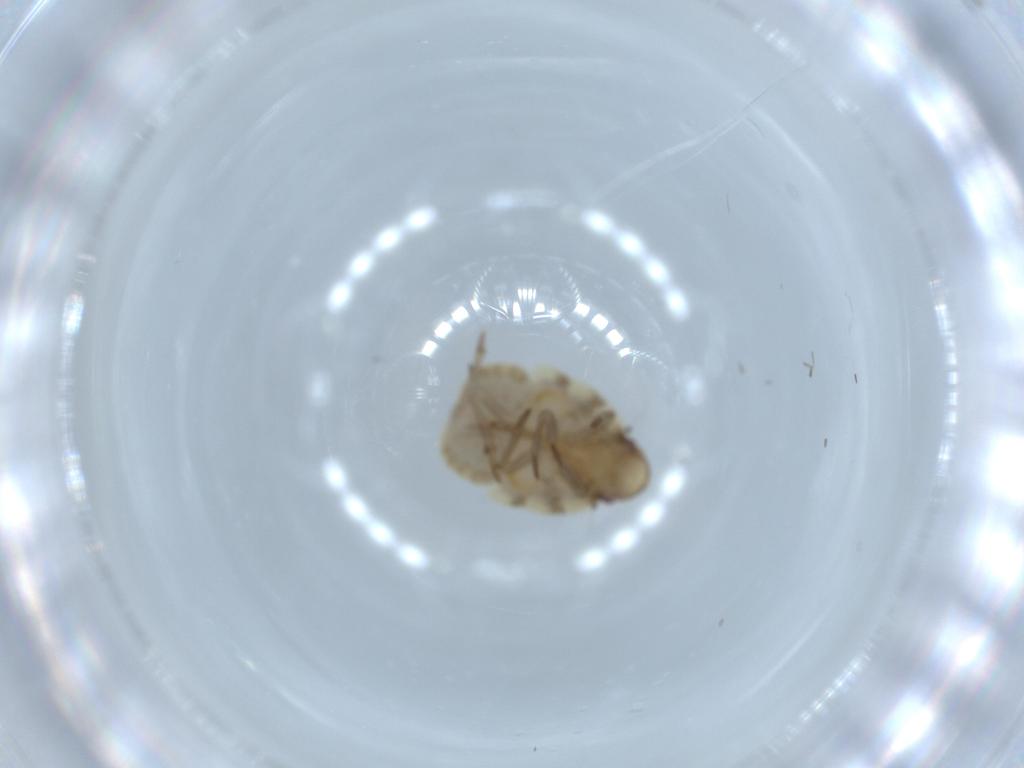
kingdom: Animalia
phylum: Arthropoda
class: Insecta
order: Hemiptera
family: Flatidae
